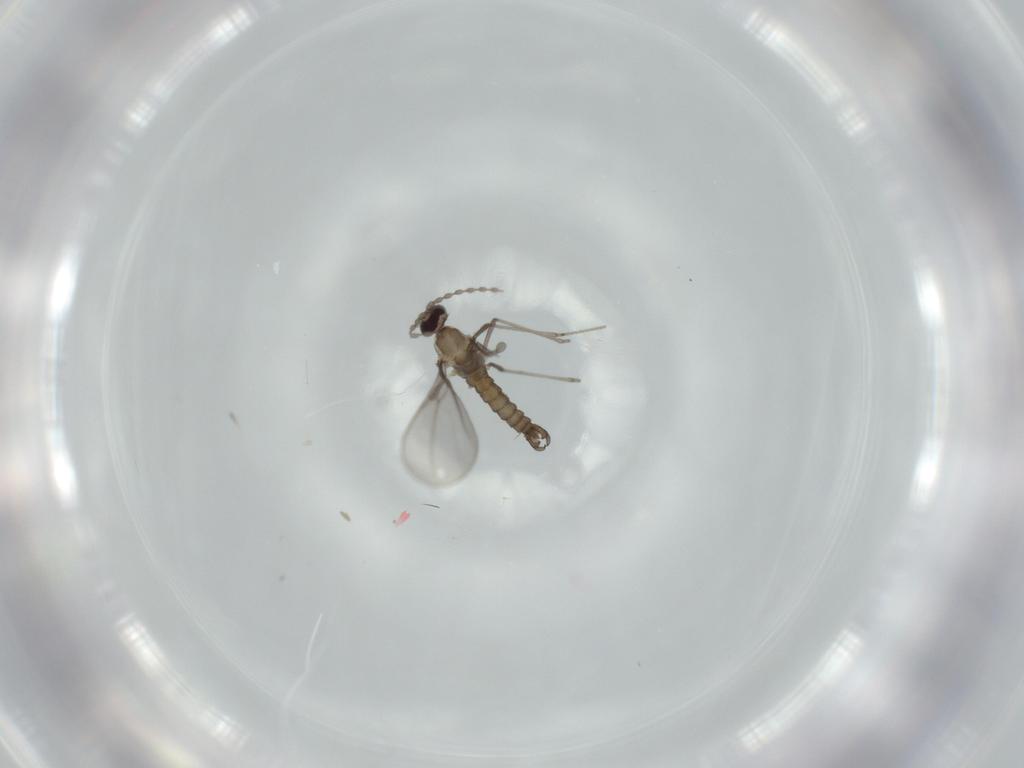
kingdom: Animalia
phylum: Arthropoda
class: Insecta
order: Diptera
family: Cecidomyiidae
